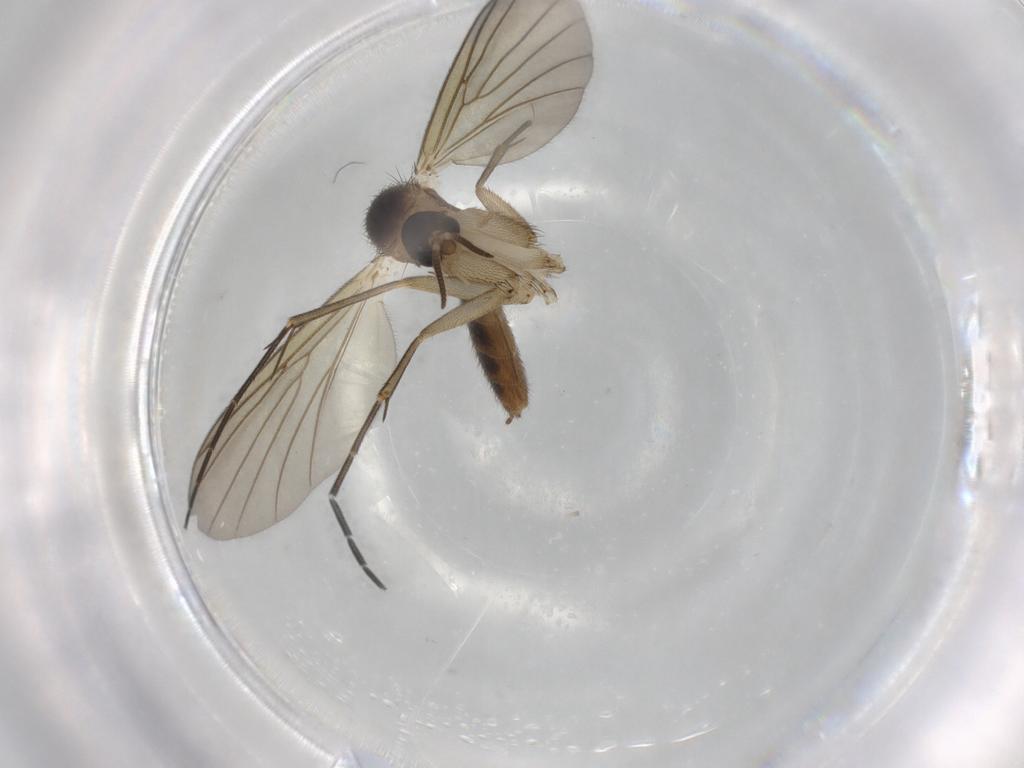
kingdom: Animalia
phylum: Arthropoda
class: Insecta
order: Diptera
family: Mycetophilidae
